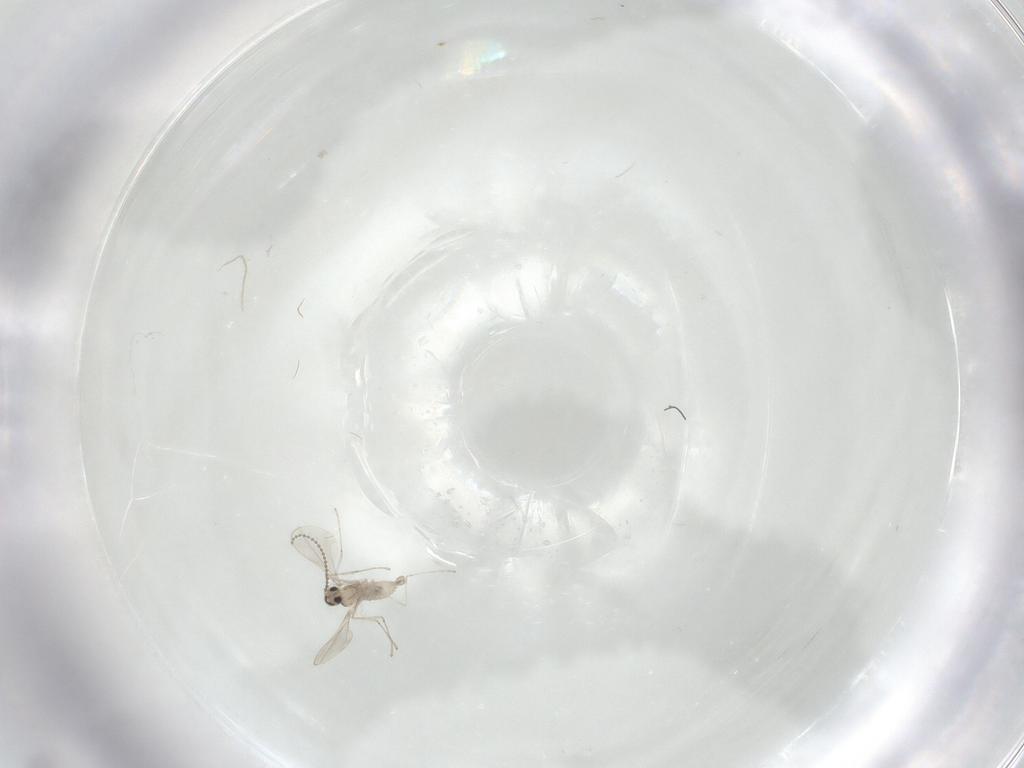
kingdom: Animalia
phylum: Arthropoda
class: Insecta
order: Diptera
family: Cecidomyiidae
